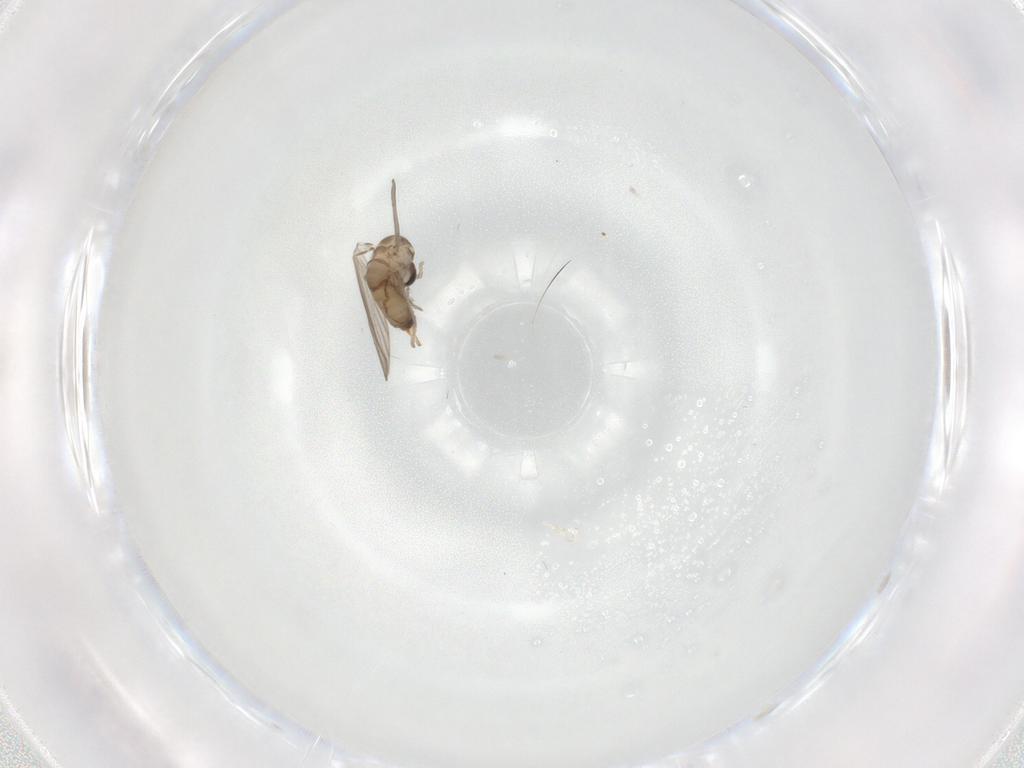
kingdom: Animalia
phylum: Arthropoda
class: Insecta
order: Diptera
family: Psychodidae
